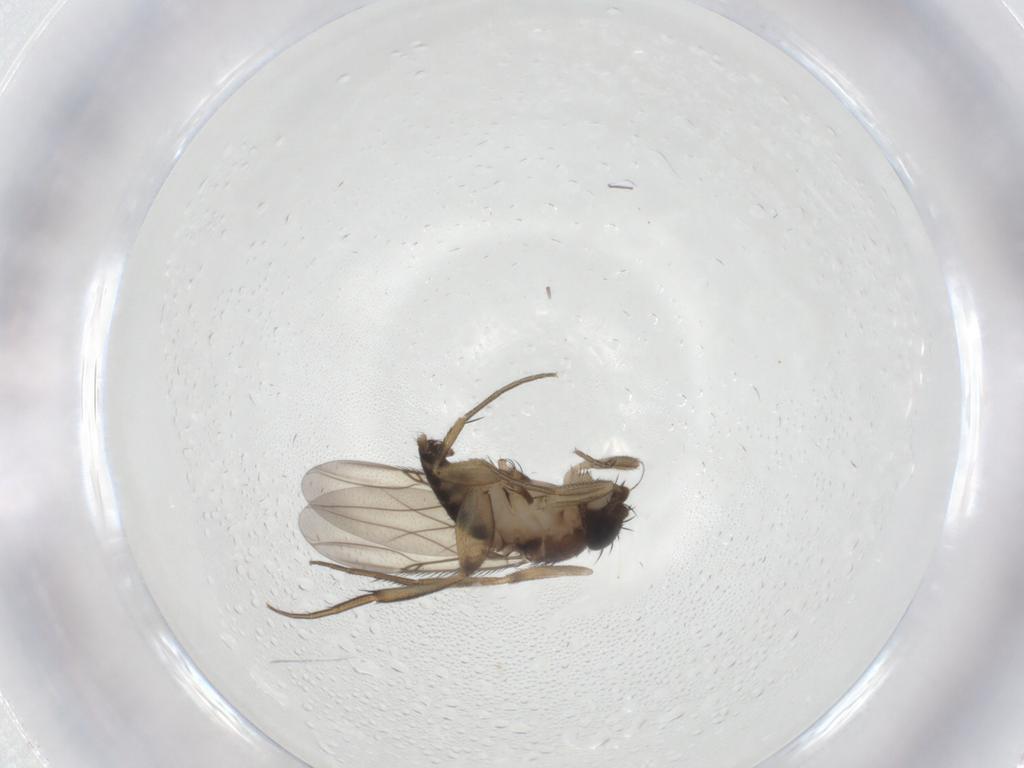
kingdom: Animalia
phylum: Arthropoda
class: Insecta
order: Diptera
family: Phoridae
